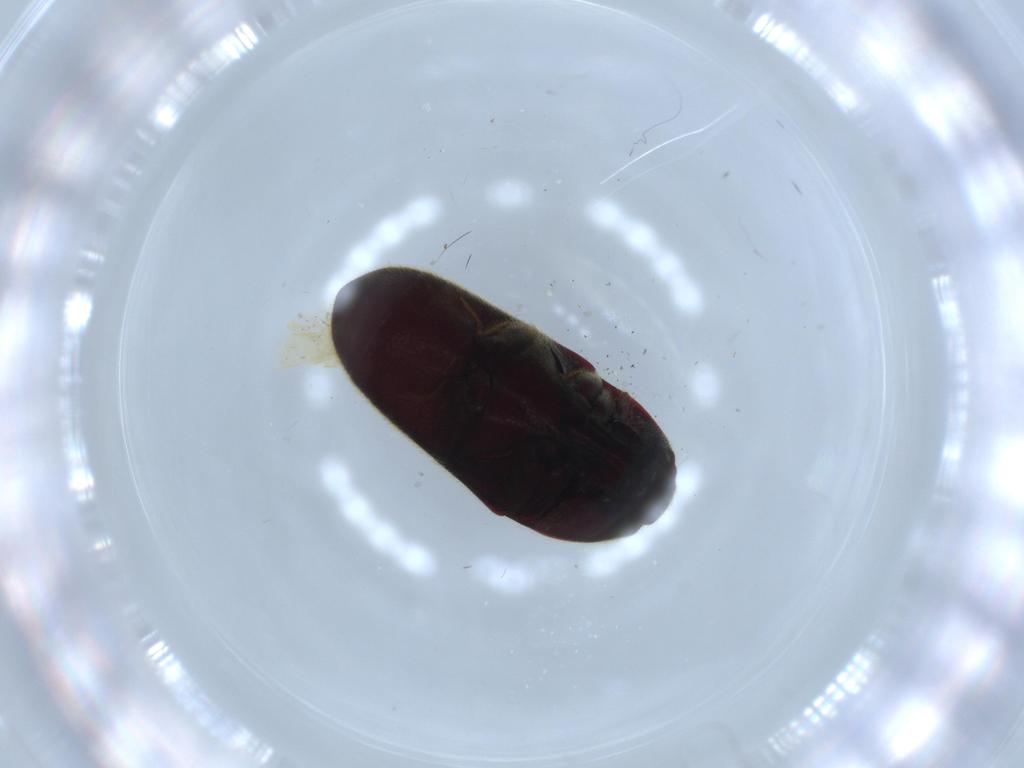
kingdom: Animalia
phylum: Arthropoda
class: Insecta
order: Coleoptera
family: Throscidae
